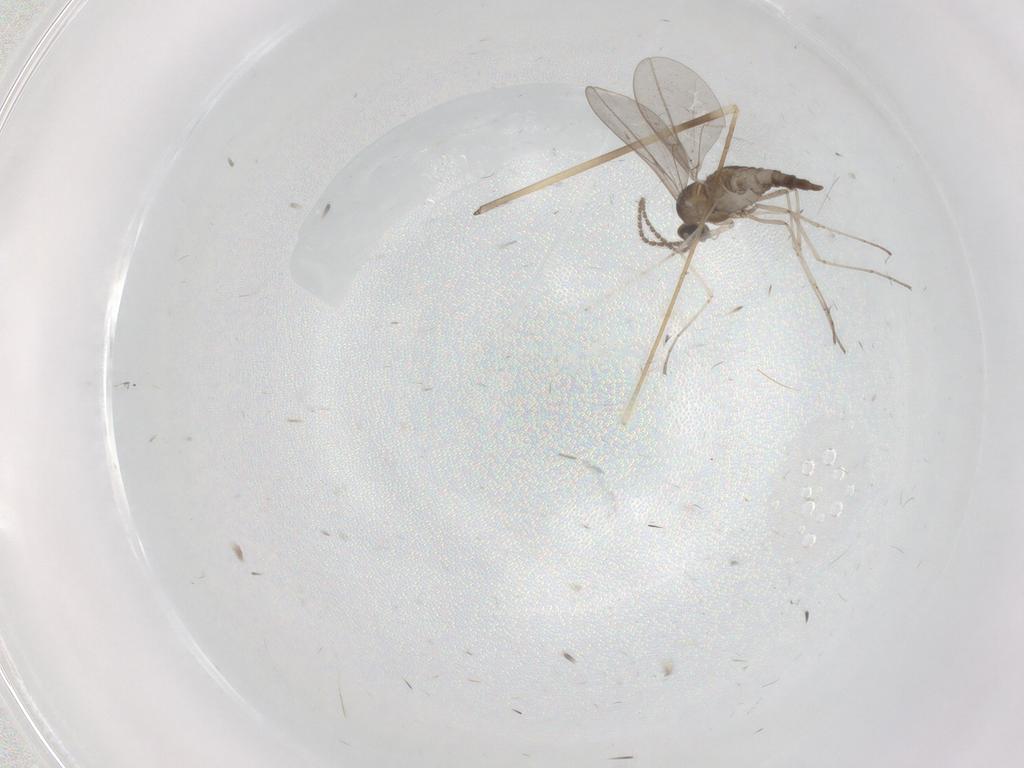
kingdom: Animalia
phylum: Arthropoda
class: Insecta
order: Diptera
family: Cecidomyiidae
